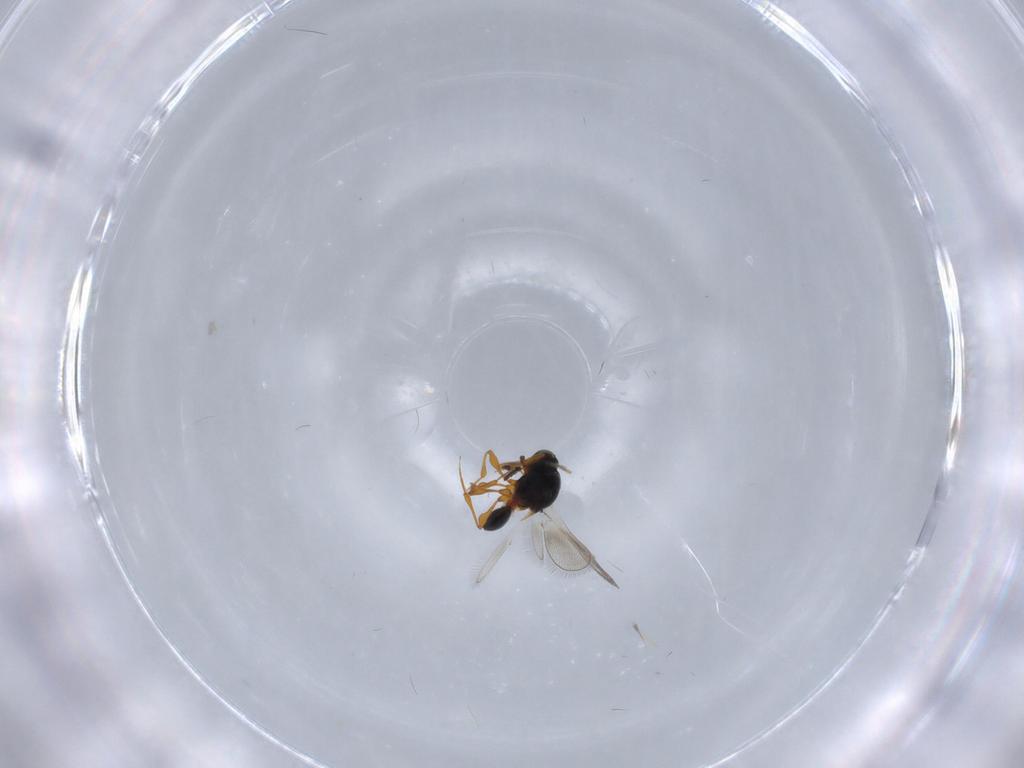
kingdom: Animalia
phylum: Arthropoda
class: Insecta
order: Hymenoptera
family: Platygastridae
